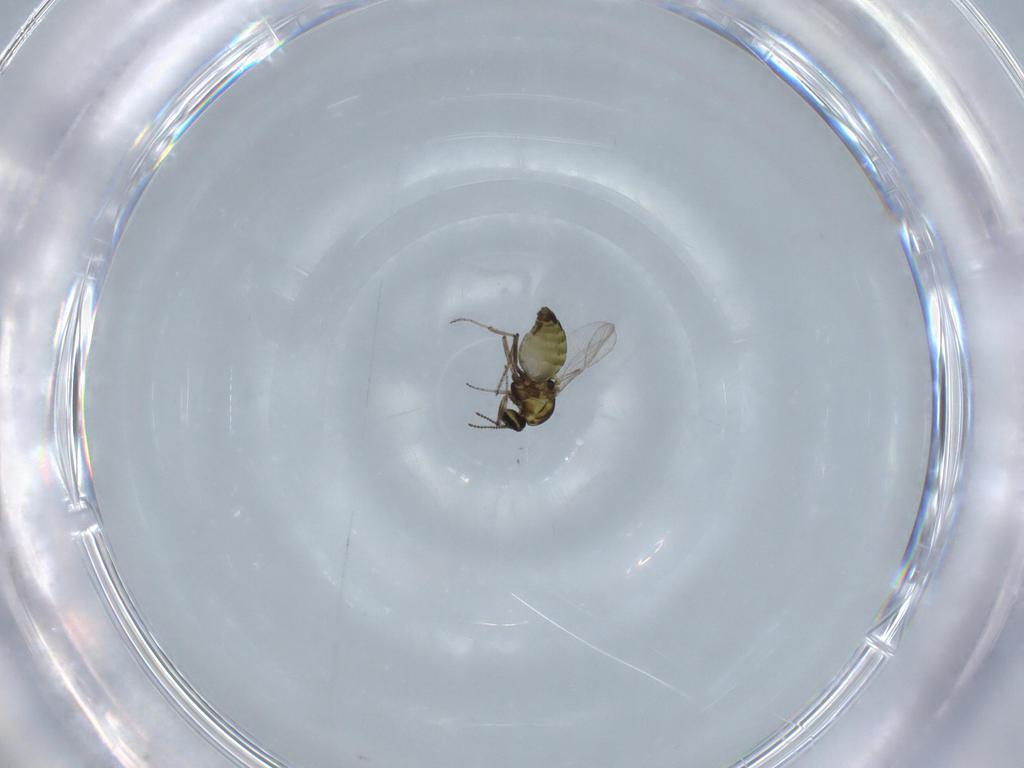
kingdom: Animalia
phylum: Arthropoda
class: Insecta
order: Diptera
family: Ceratopogonidae
